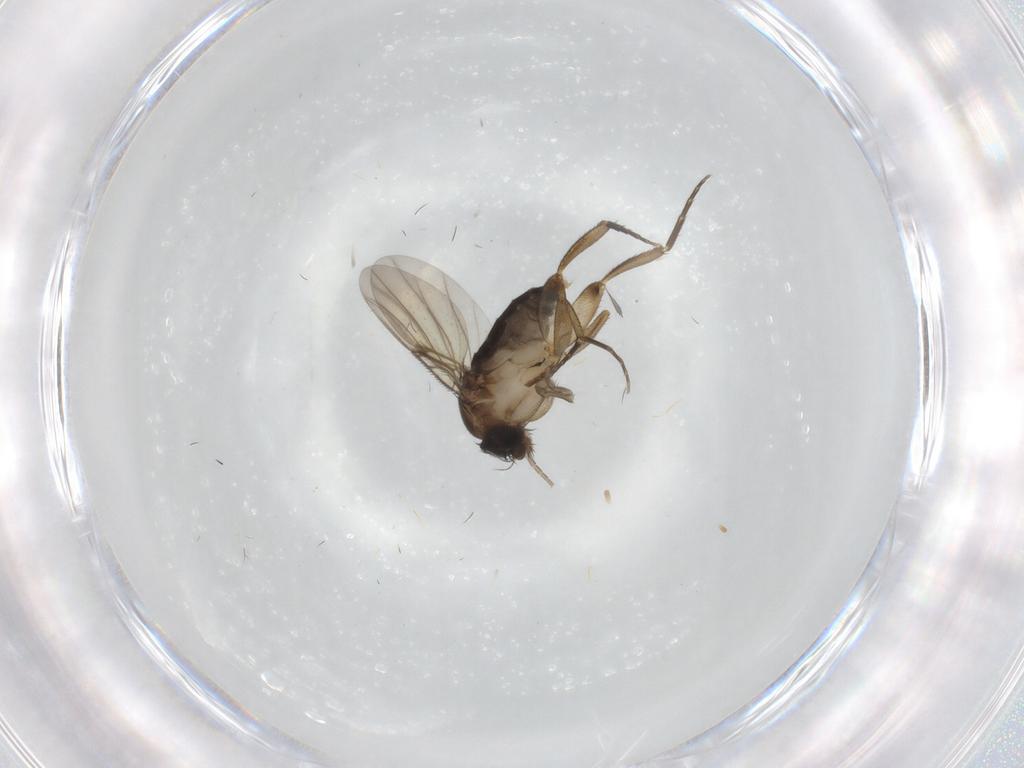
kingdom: Animalia
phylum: Arthropoda
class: Insecta
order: Diptera
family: Phoridae
